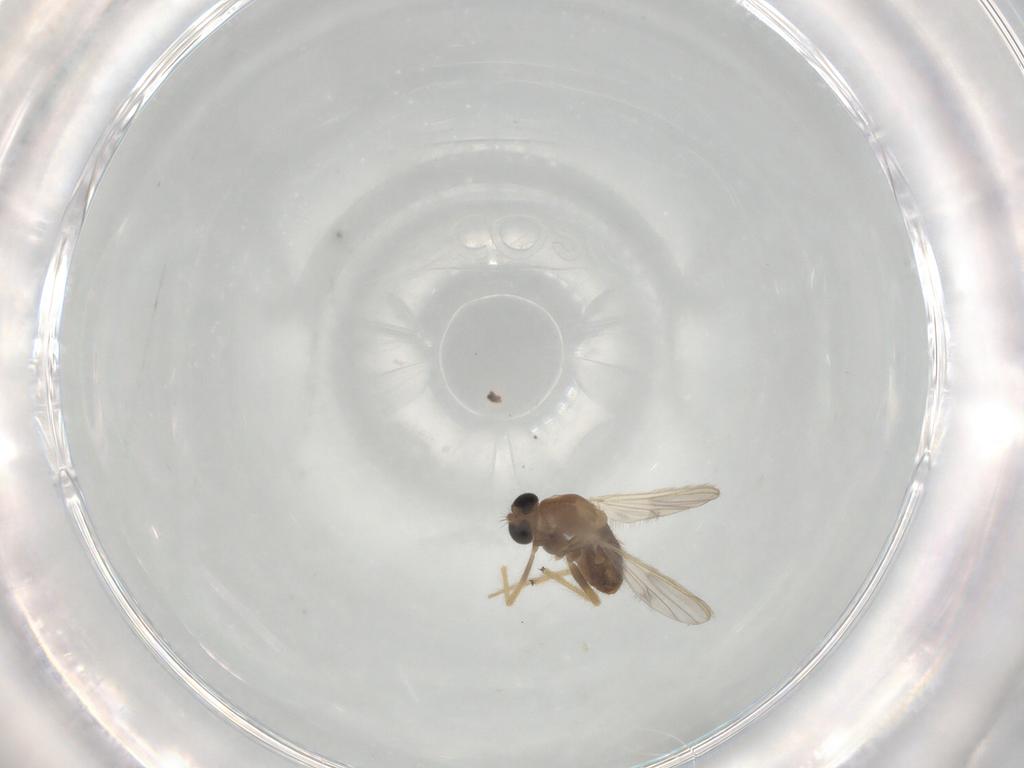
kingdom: Animalia
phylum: Arthropoda
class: Insecta
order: Diptera
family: Chironomidae
